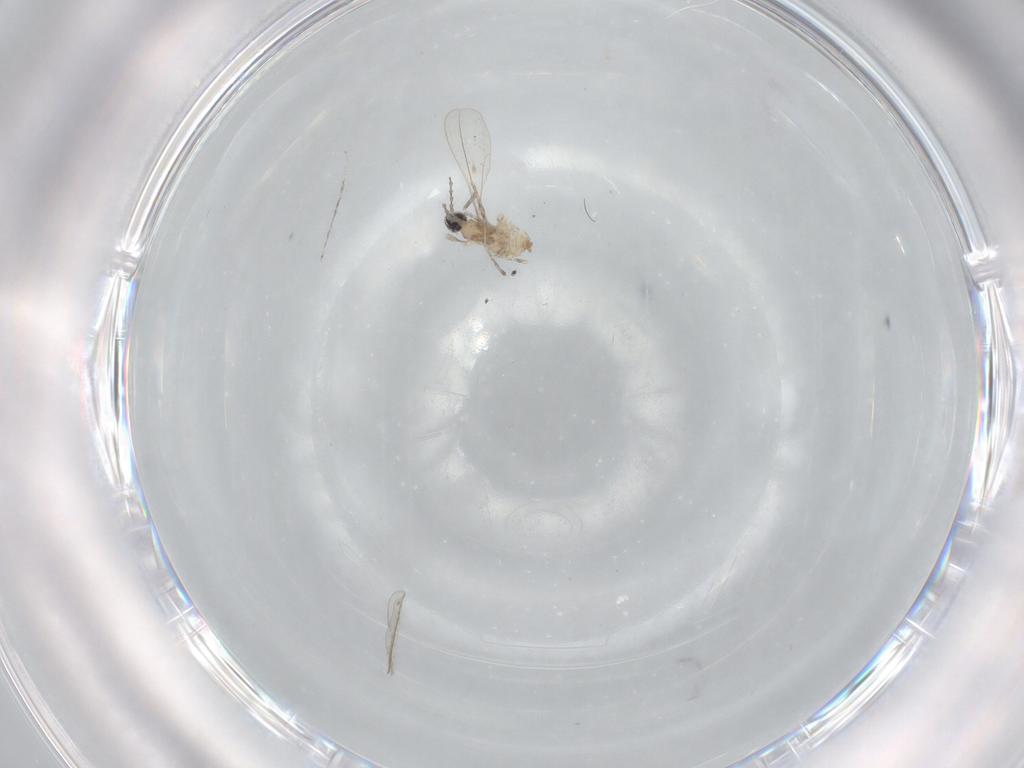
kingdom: Animalia
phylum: Arthropoda
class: Insecta
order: Diptera
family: Cecidomyiidae
